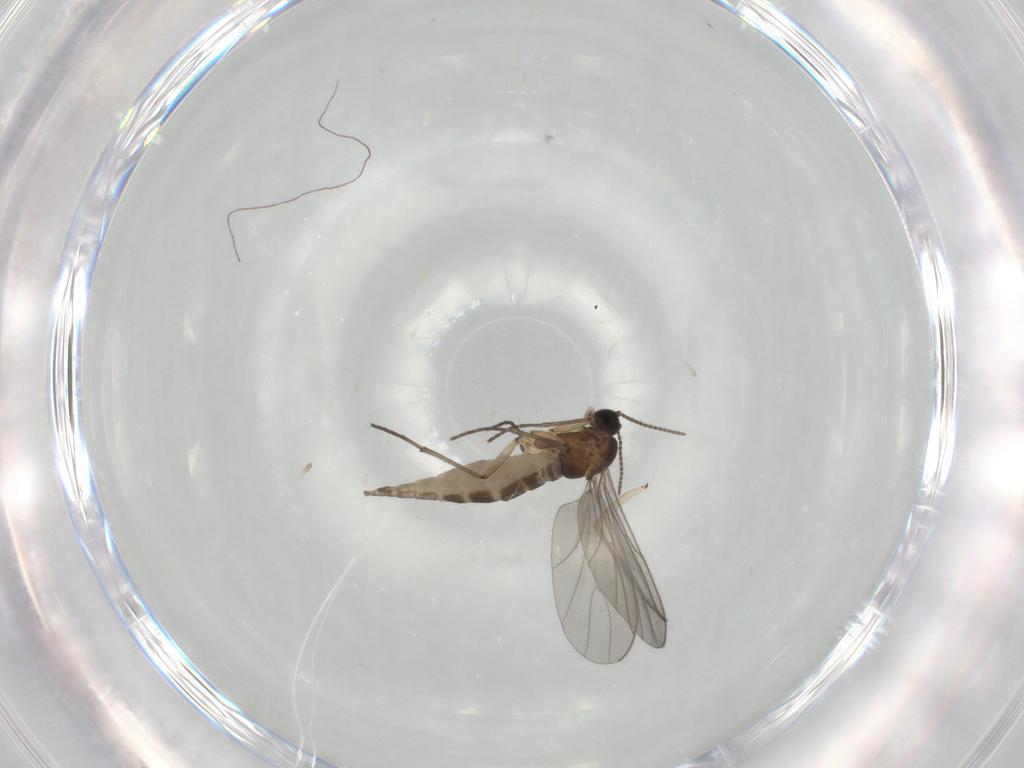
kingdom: Animalia
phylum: Arthropoda
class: Insecta
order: Diptera
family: Sciaridae
